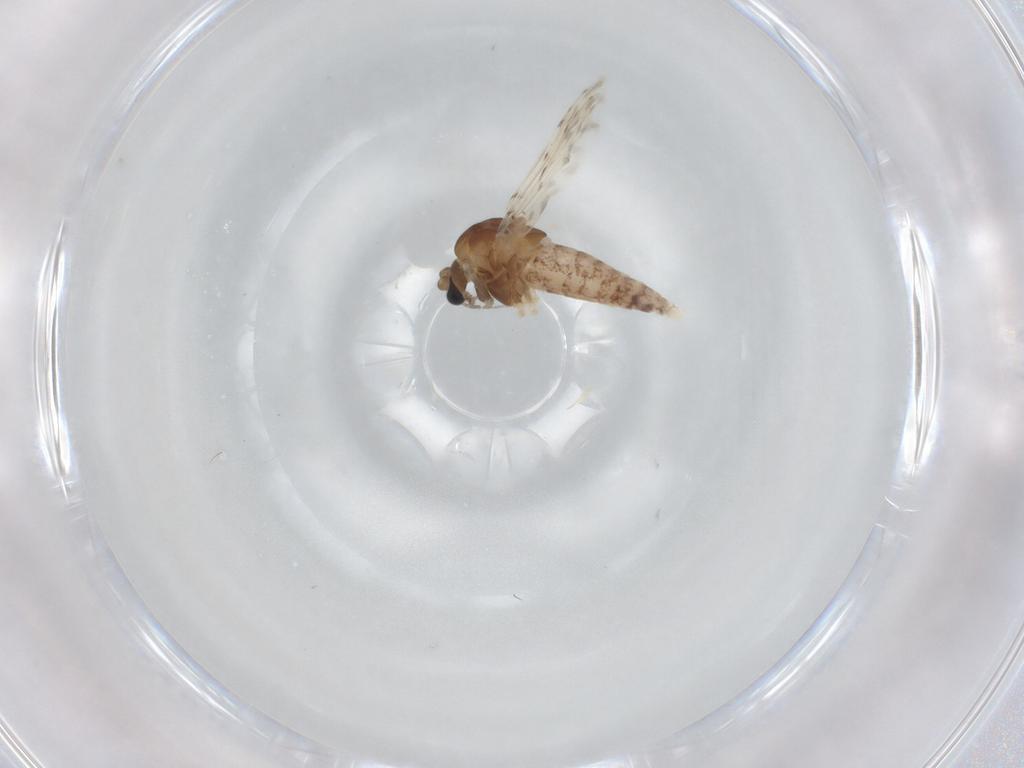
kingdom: Animalia
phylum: Arthropoda
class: Insecta
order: Diptera
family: Chironomidae
